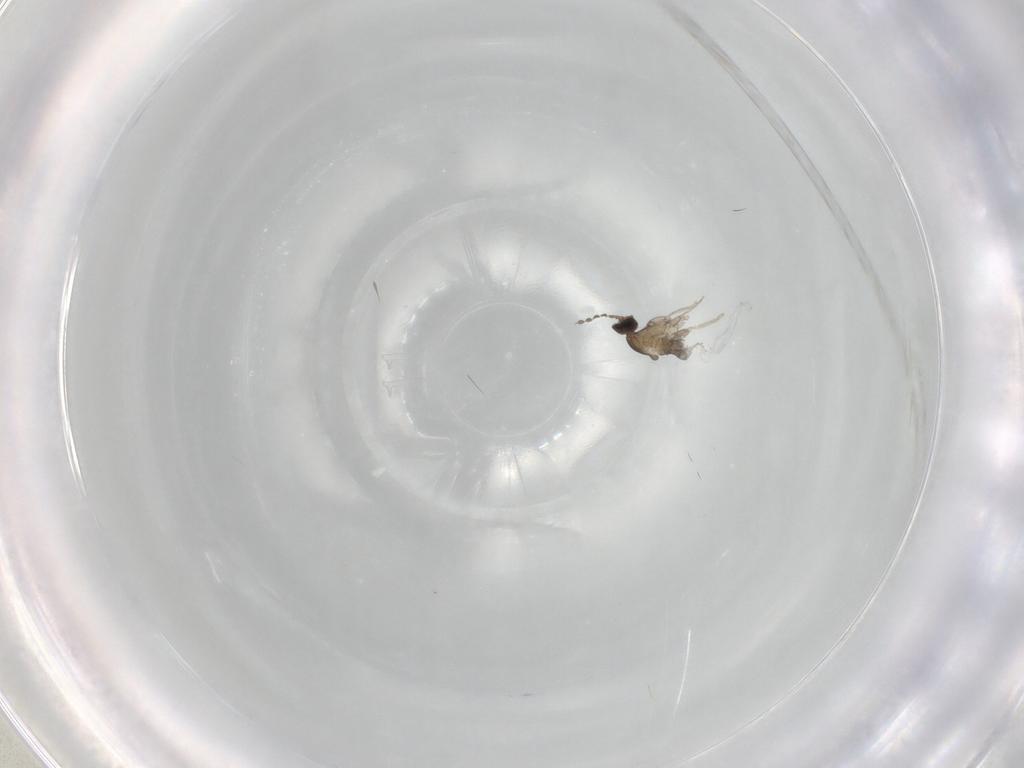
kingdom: Animalia
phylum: Arthropoda
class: Insecta
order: Diptera
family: Cecidomyiidae
